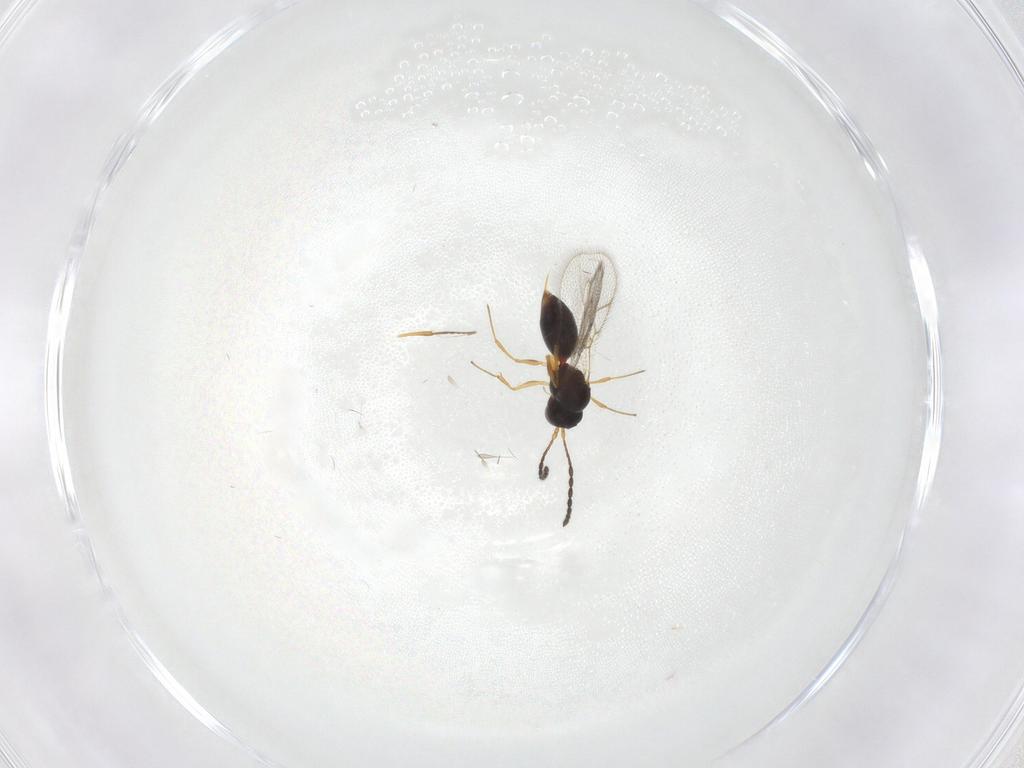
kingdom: Animalia
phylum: Arthropoda
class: Insecta
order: Hymenoptera
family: Figitidae
